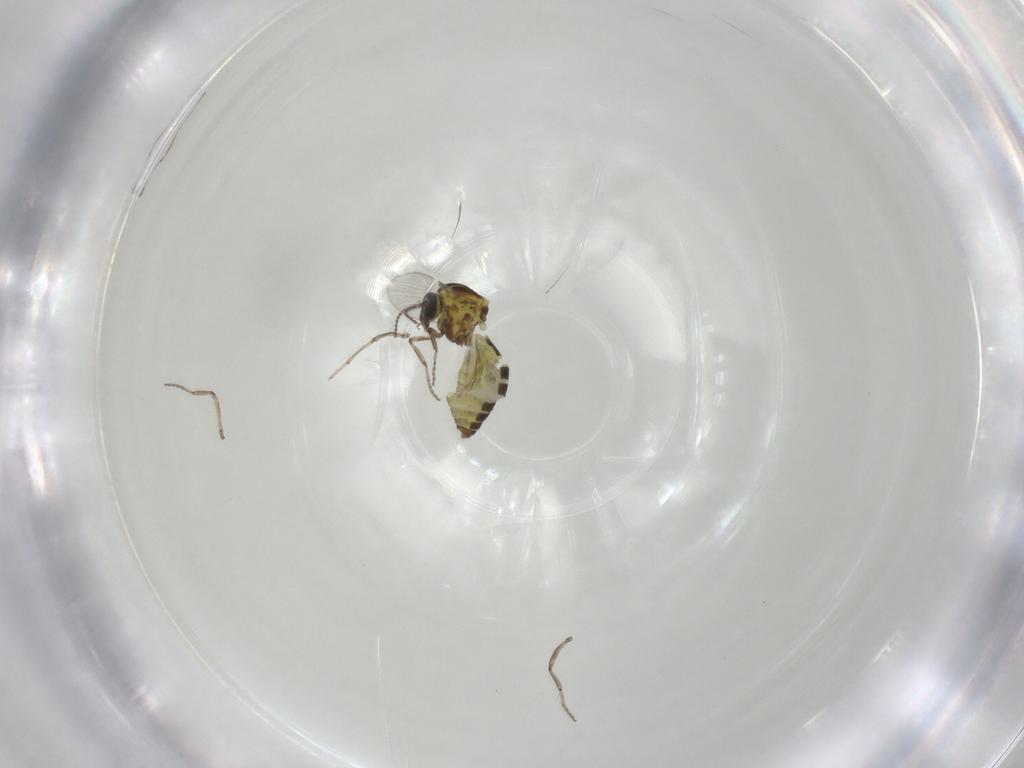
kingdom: Animalia
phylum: Arthropoda
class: Insecta
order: Diptera
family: Ceratopogonidae
